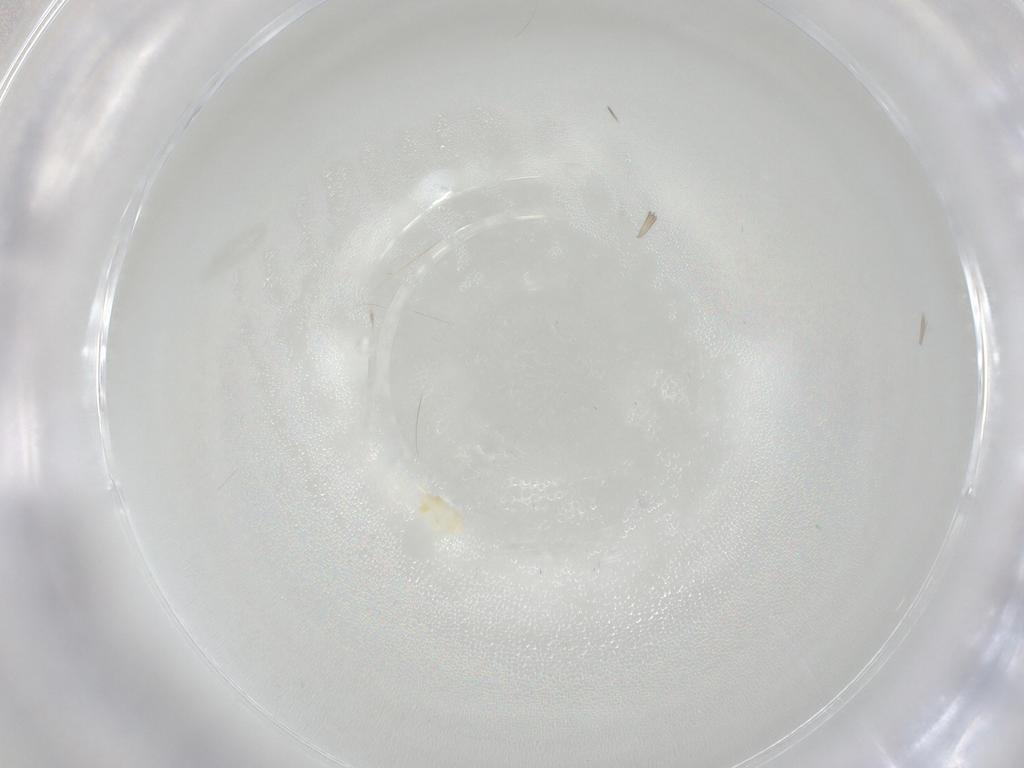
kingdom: Animalia
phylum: Arthropoda
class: Arachnida
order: Trombidiformes
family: Eupodidae
